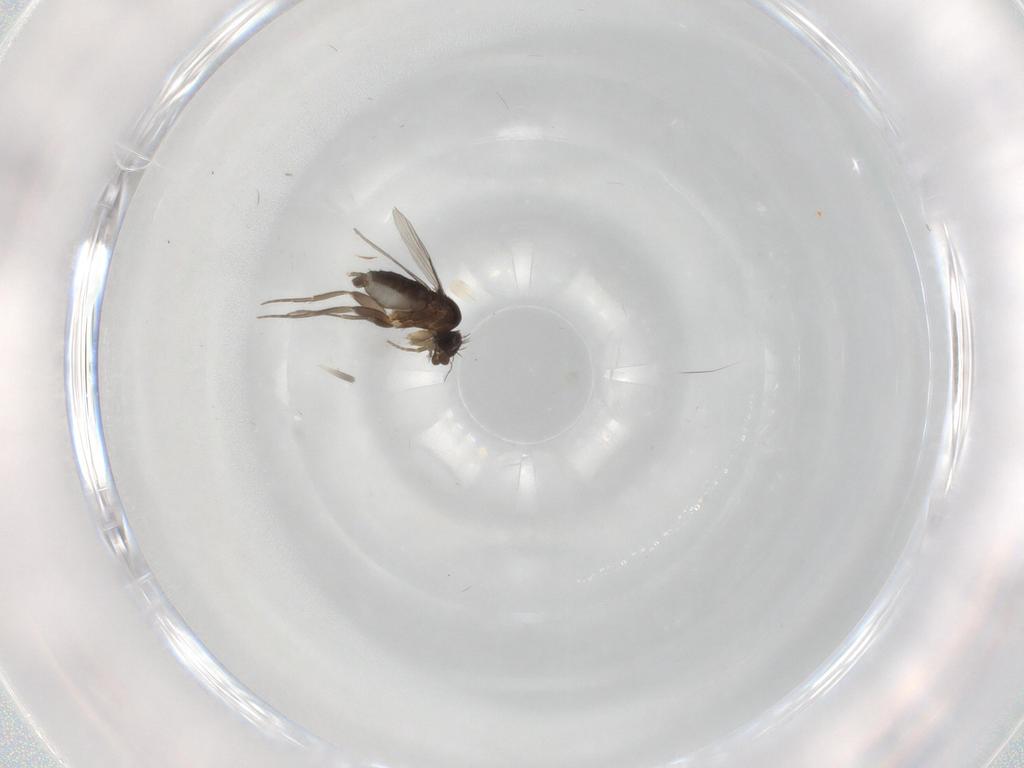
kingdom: Animalia
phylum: Arthropoda
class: Insecta
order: Diptera
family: Phoridae
